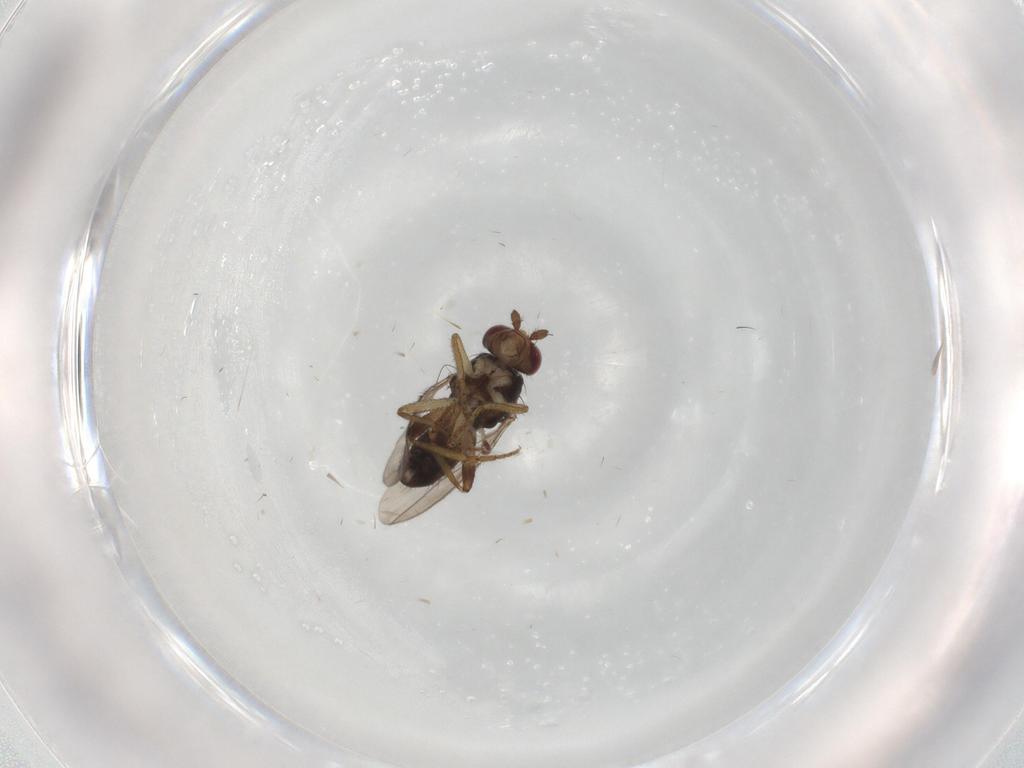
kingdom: Animalia
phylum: Arthropoda
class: Insecta
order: Diptera
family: Sphaeroceridae
